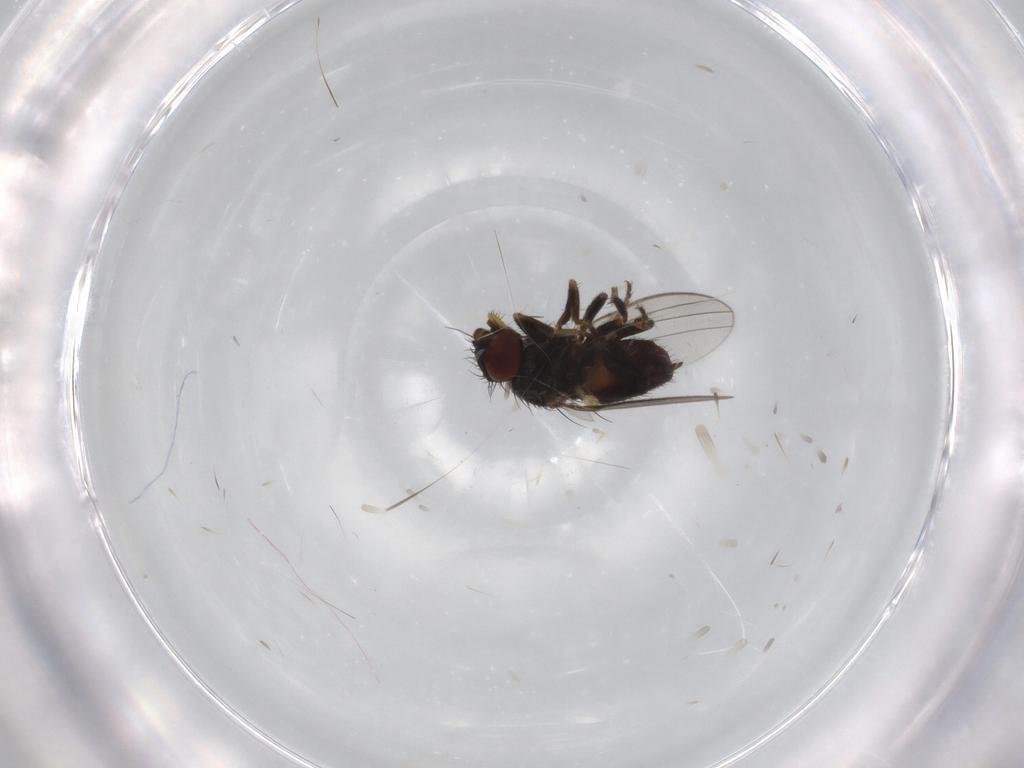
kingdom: Animalia
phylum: Arthropoda
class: Insecta
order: Diptera
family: Milichiidae
